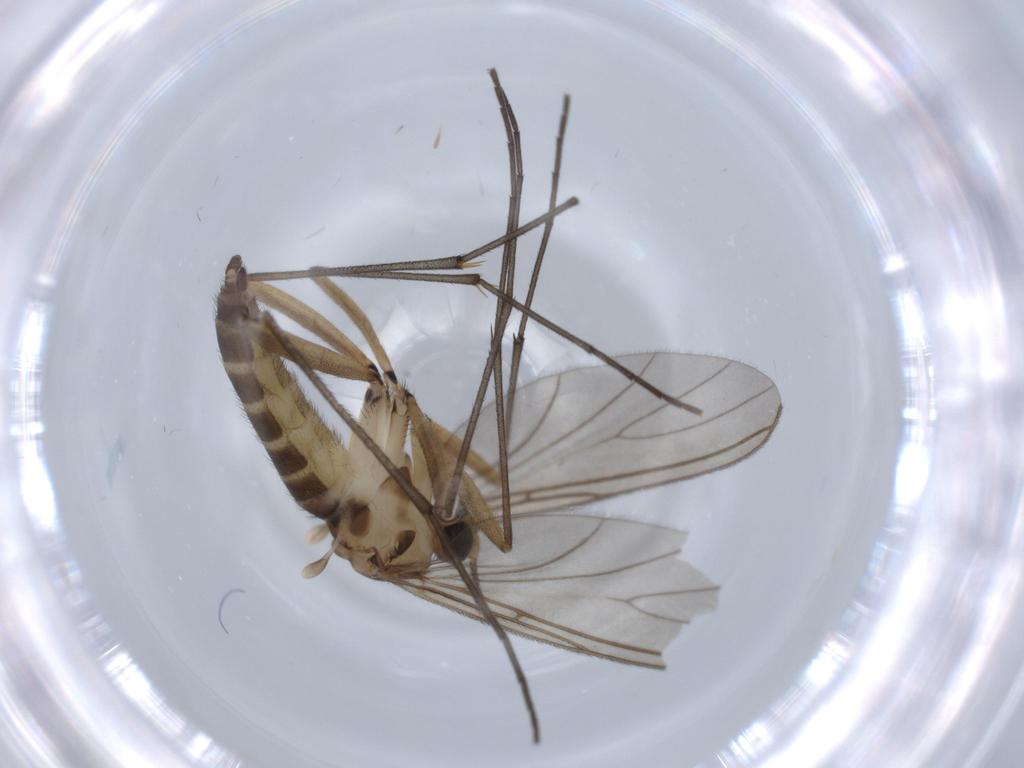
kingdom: Animalia
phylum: Arthropoda
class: Insecta
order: Diptera
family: Sciaridae
